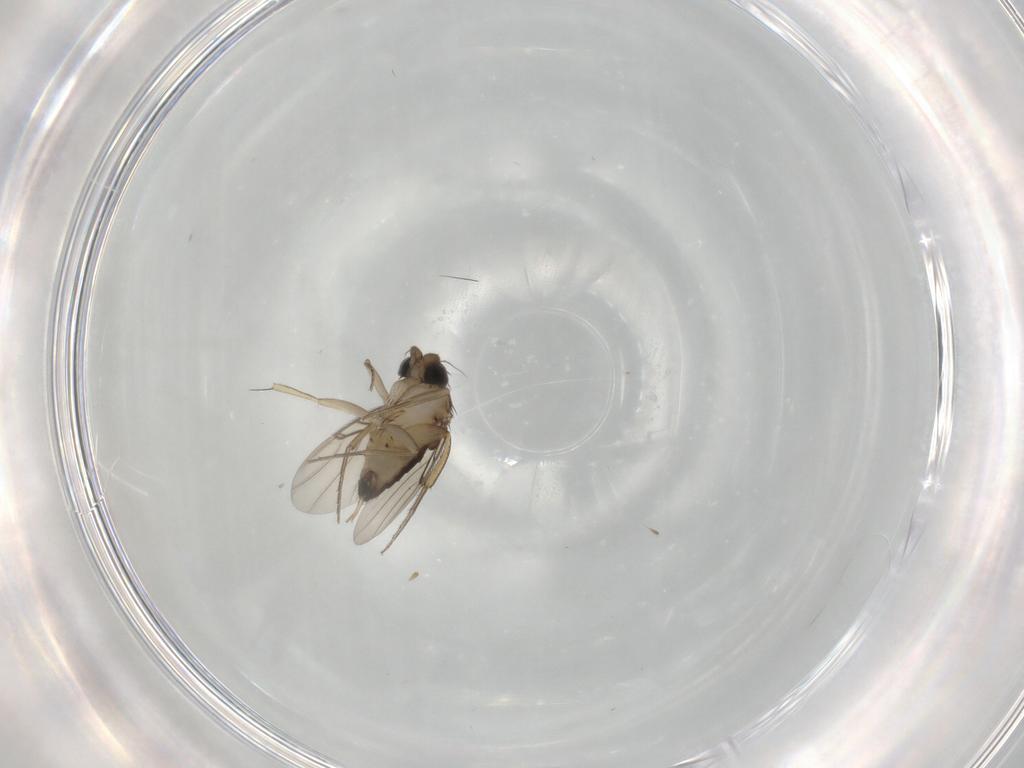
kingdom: Animalia
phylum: Arthropoda
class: Insecta
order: Diptera
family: Phoridae
